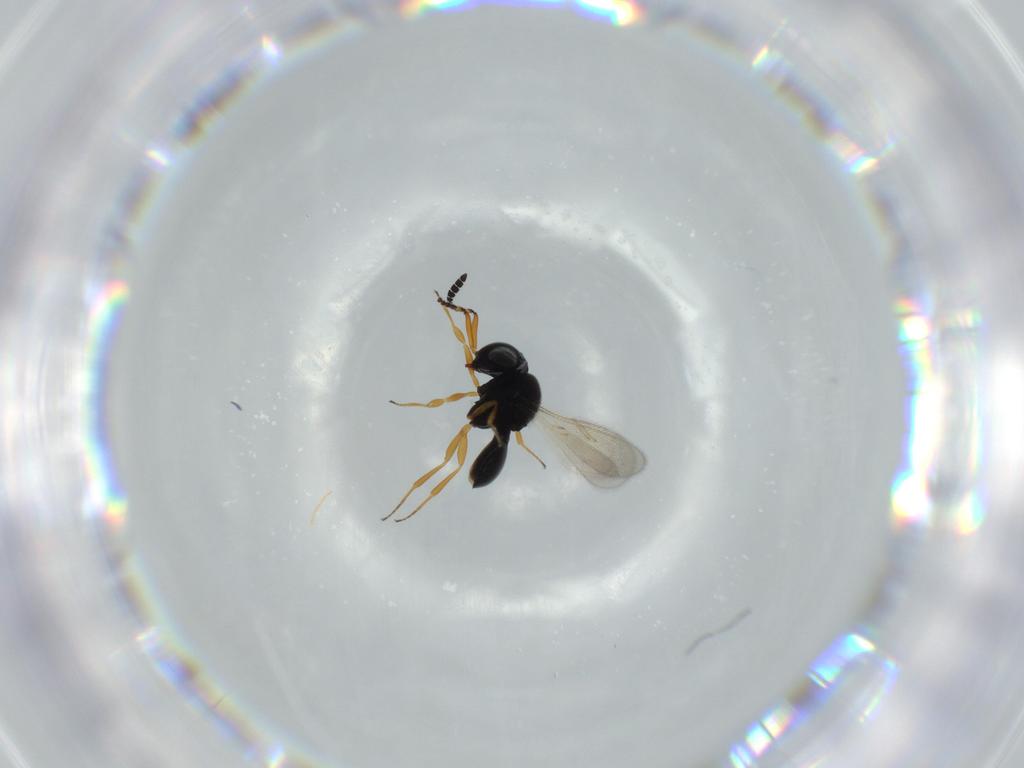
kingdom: Animalia
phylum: Arthropoda
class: Insecta
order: Hymenoptera
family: Scelionidae
